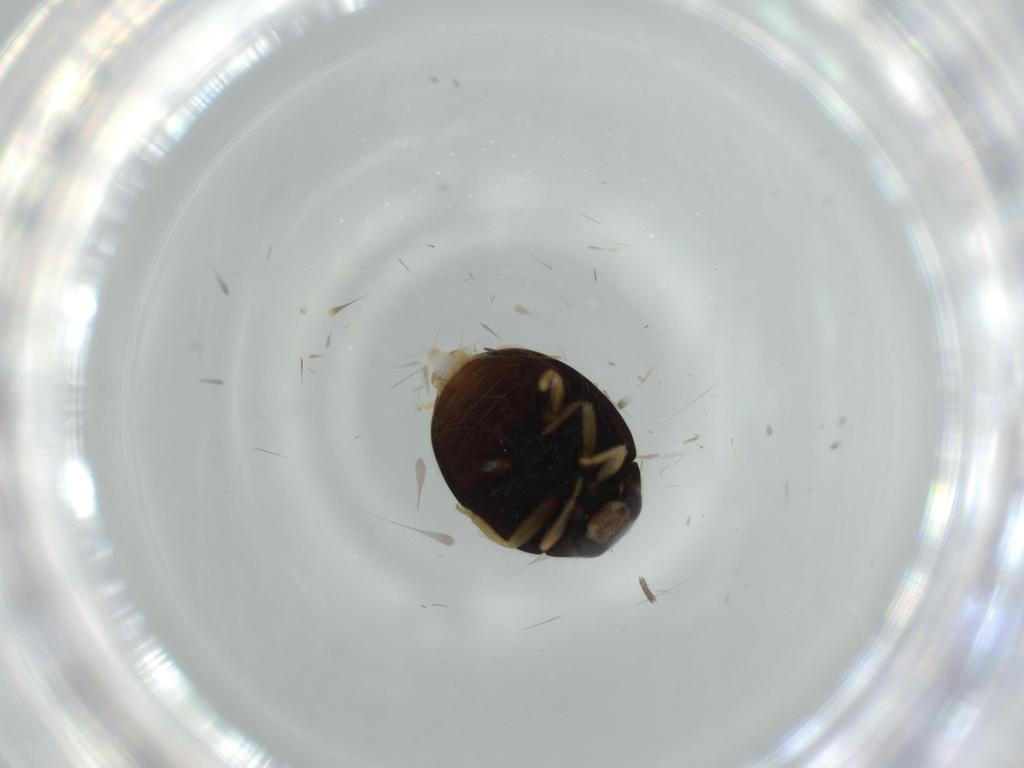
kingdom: Animalia
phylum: Arthropoda
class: Insecta
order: Coleoptera
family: Coccinellidae
